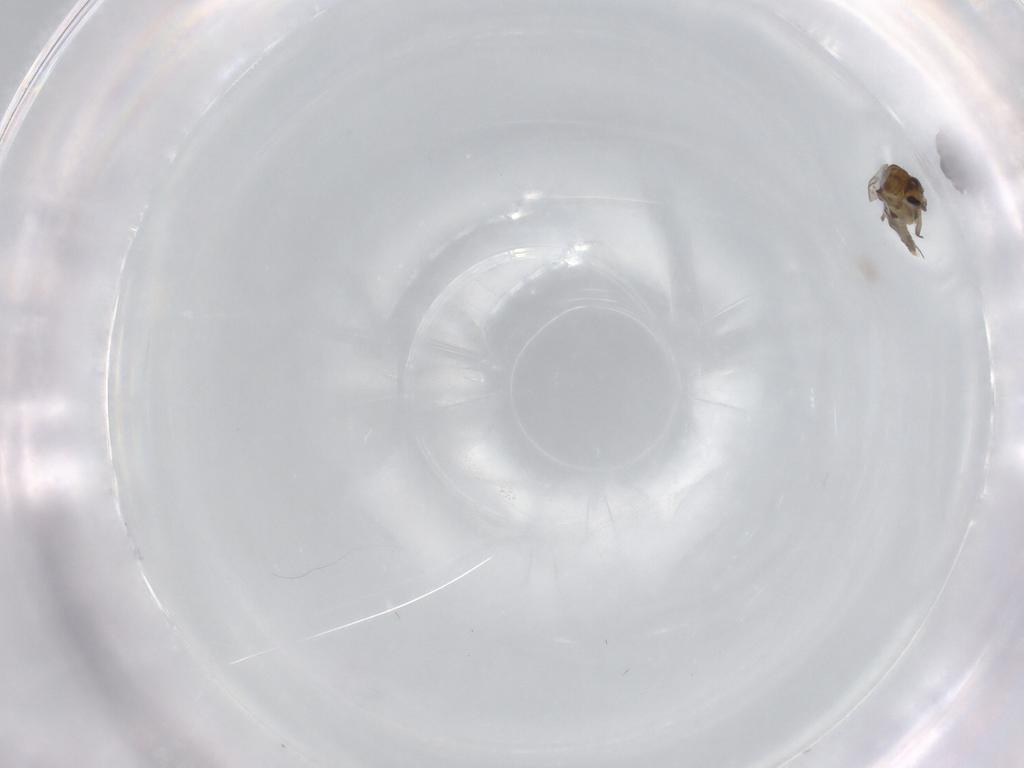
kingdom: Animalia
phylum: Arthropoda
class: Insecta
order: Diptera
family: Chironomidae
